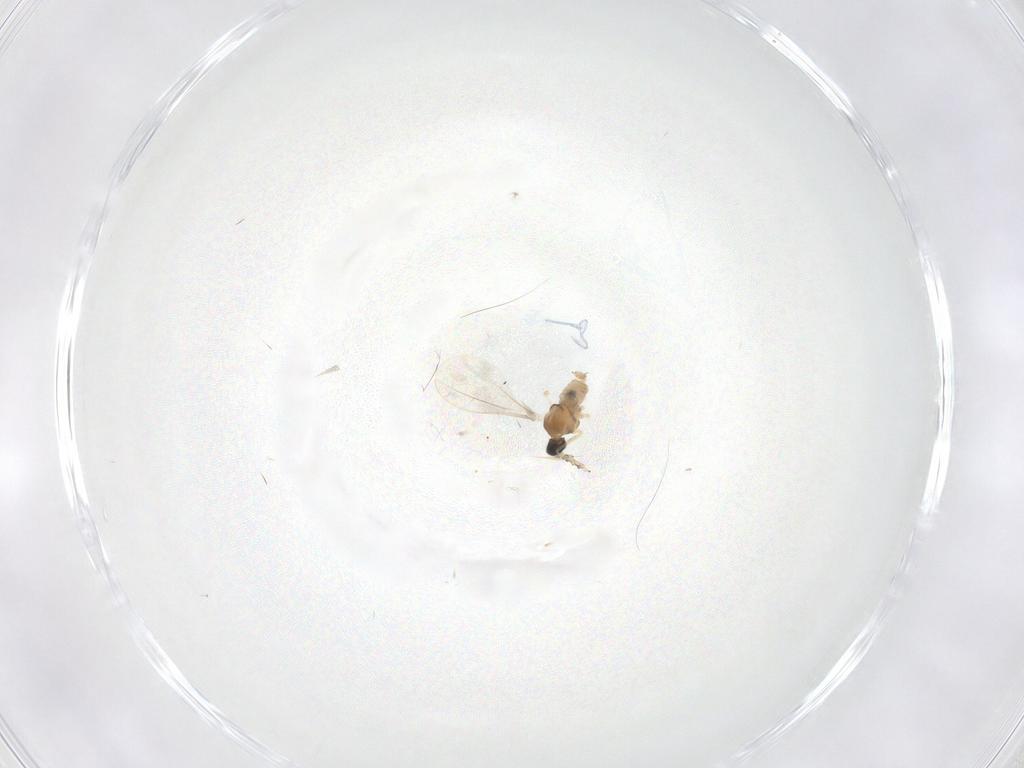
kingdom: Animalia
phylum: Arthropoda
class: Insecta
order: Diptera
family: Cecidomyiidae
